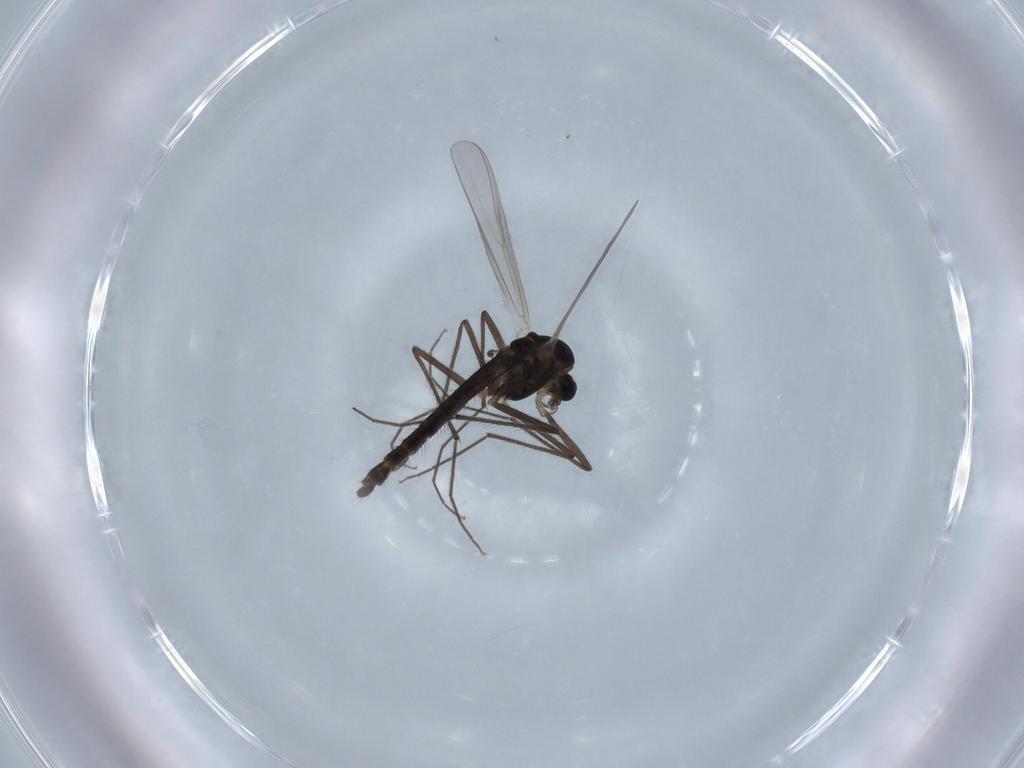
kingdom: Animalia
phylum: Arthropoda
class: Insecta
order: Diptera
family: Chironomidae
